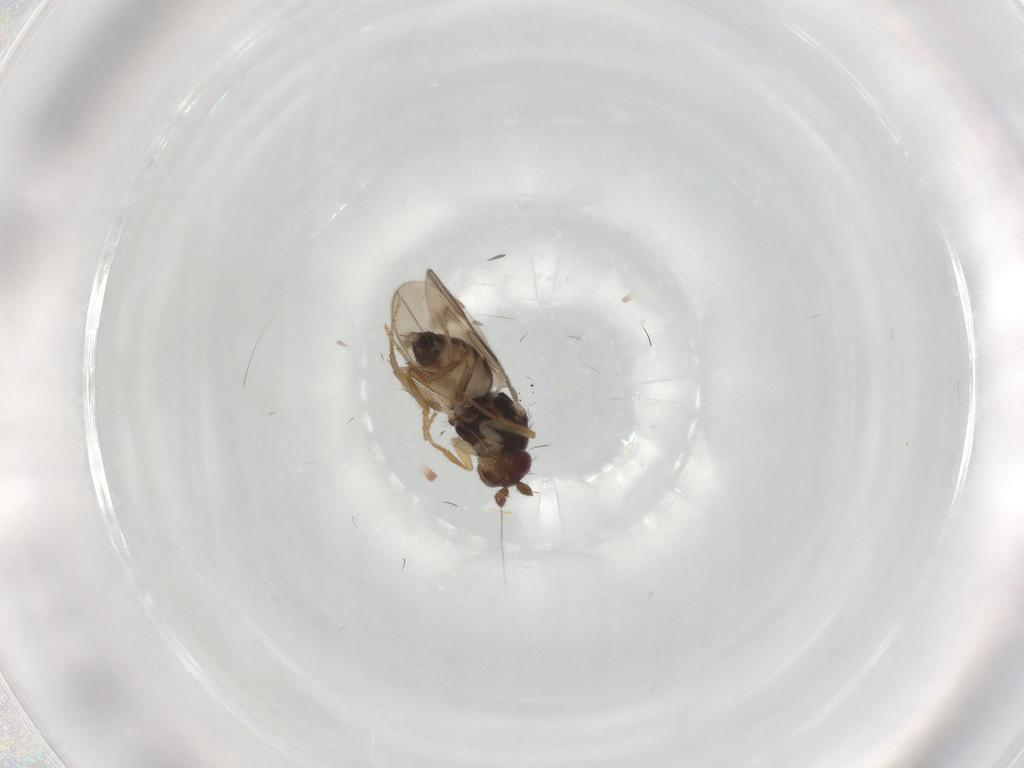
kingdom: Animalia
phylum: Arthropoda
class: Insecta
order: Diptera
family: Sphaeroceridae
